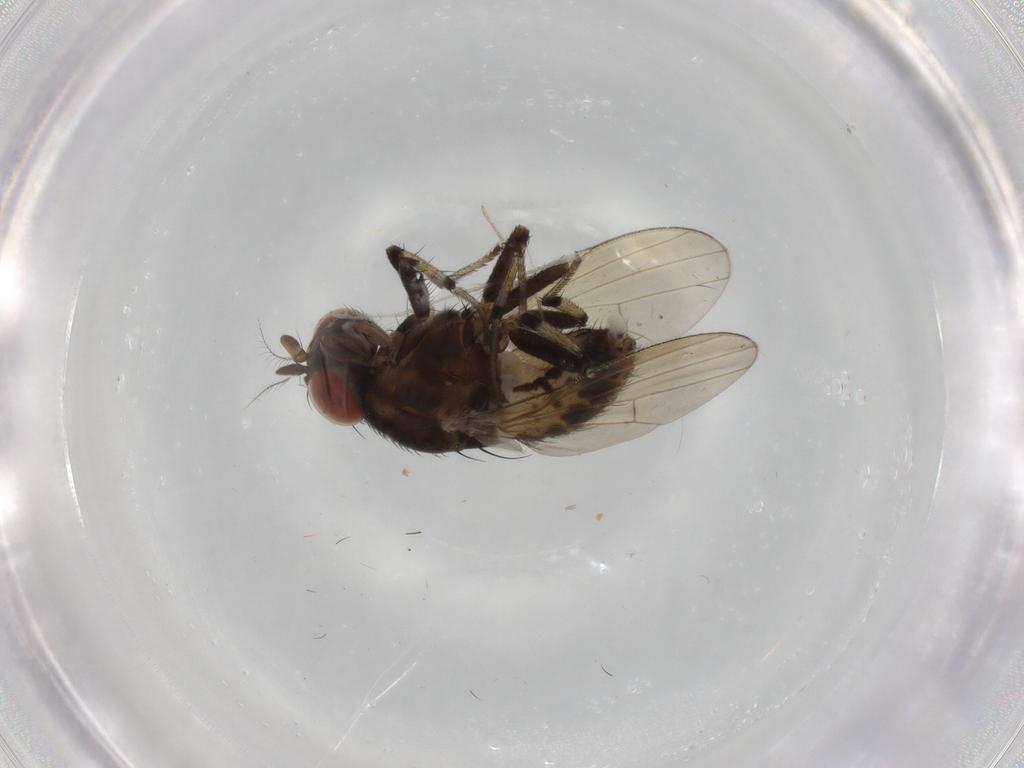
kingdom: Animalia
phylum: Arthropoda
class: Insecta
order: Diptera
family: Cecidomyiidae
